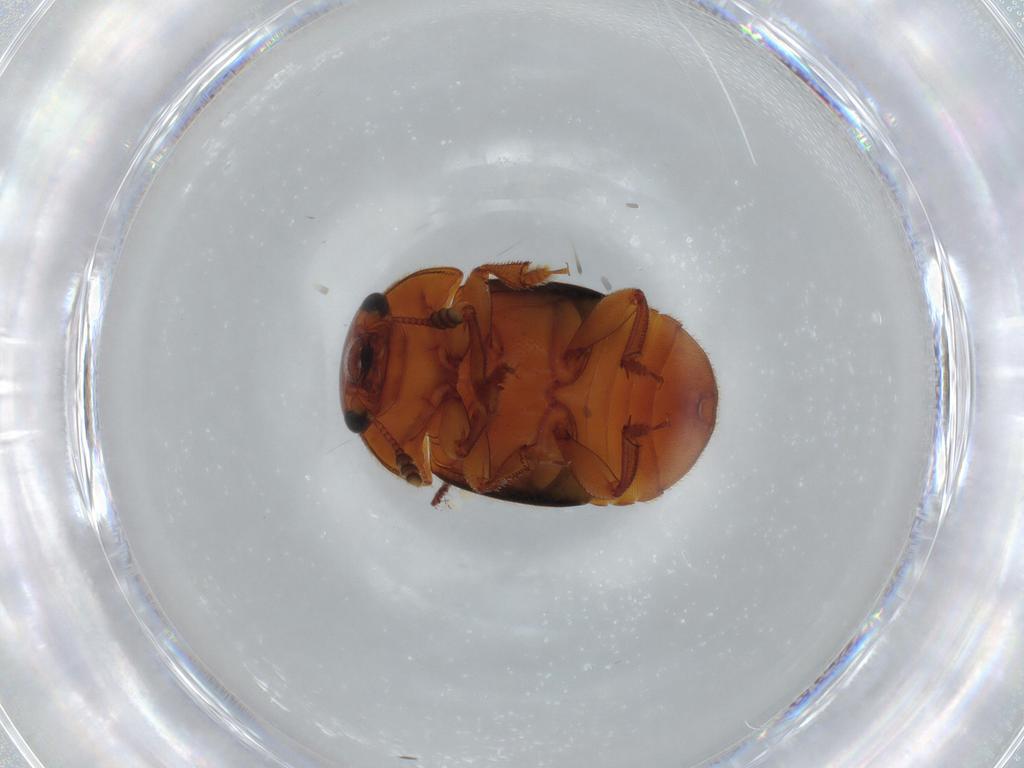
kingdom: Animalia
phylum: Arthropoda
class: Insecta
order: Coleoptera
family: Nitidulidae
